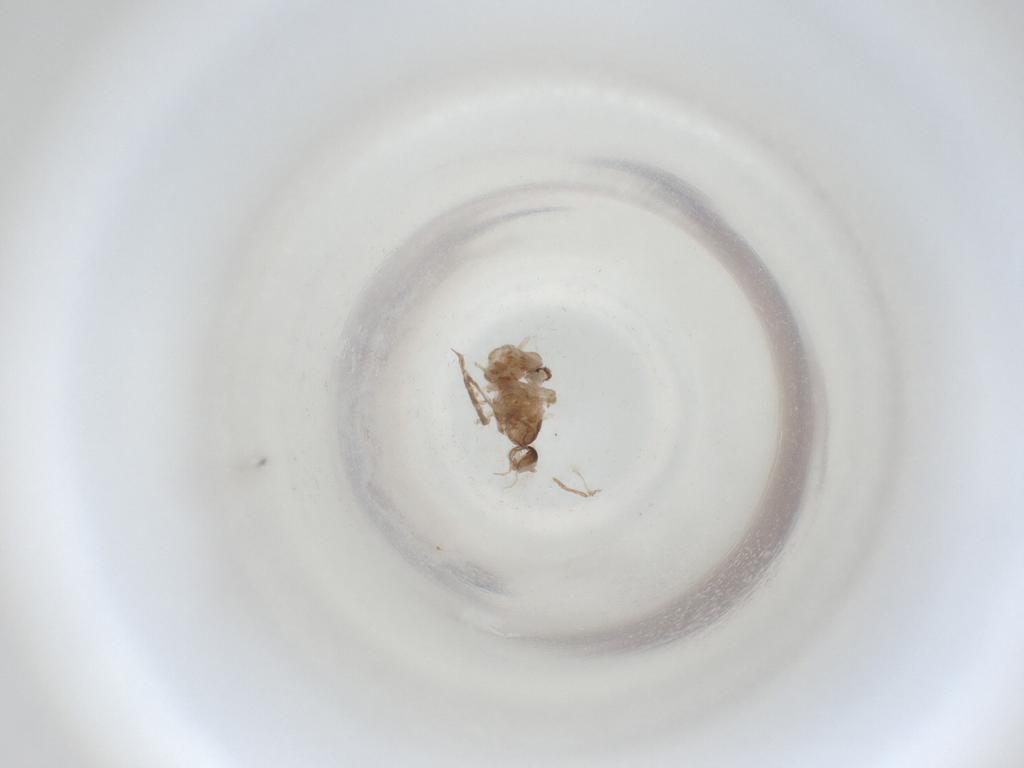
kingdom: Animalia
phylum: Arthropoda
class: Insecta
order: Diptera
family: Cecidomyiidae
